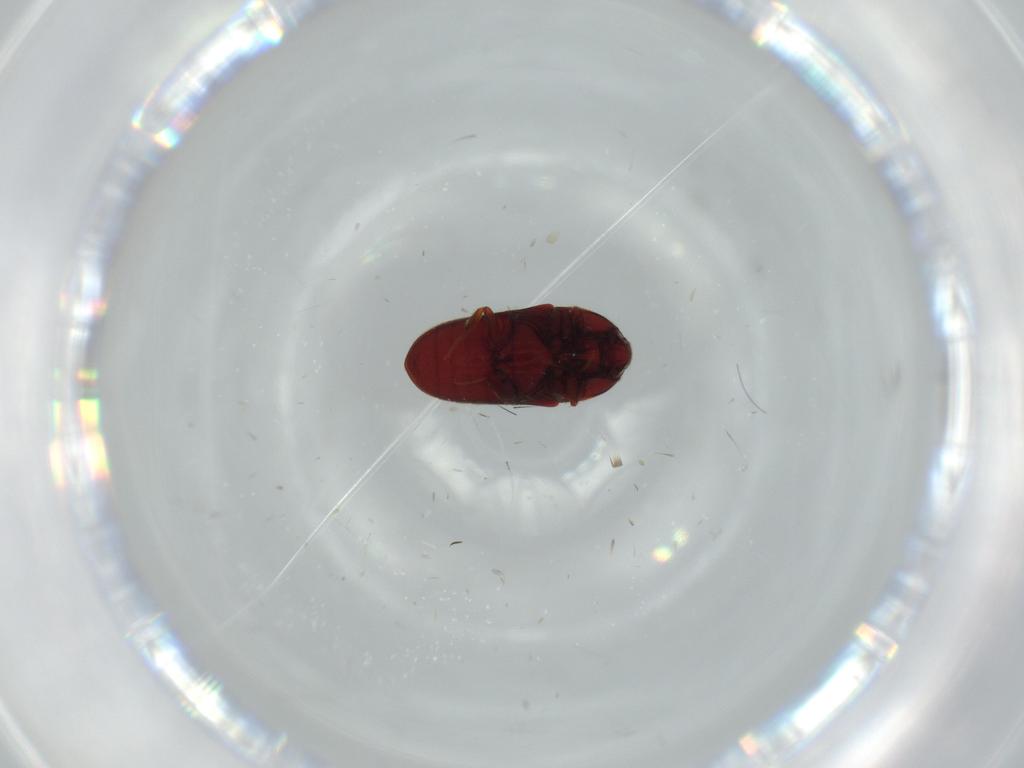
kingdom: Animalia
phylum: Arthropoda
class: Insecta
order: Coleoptera
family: Throscidae
